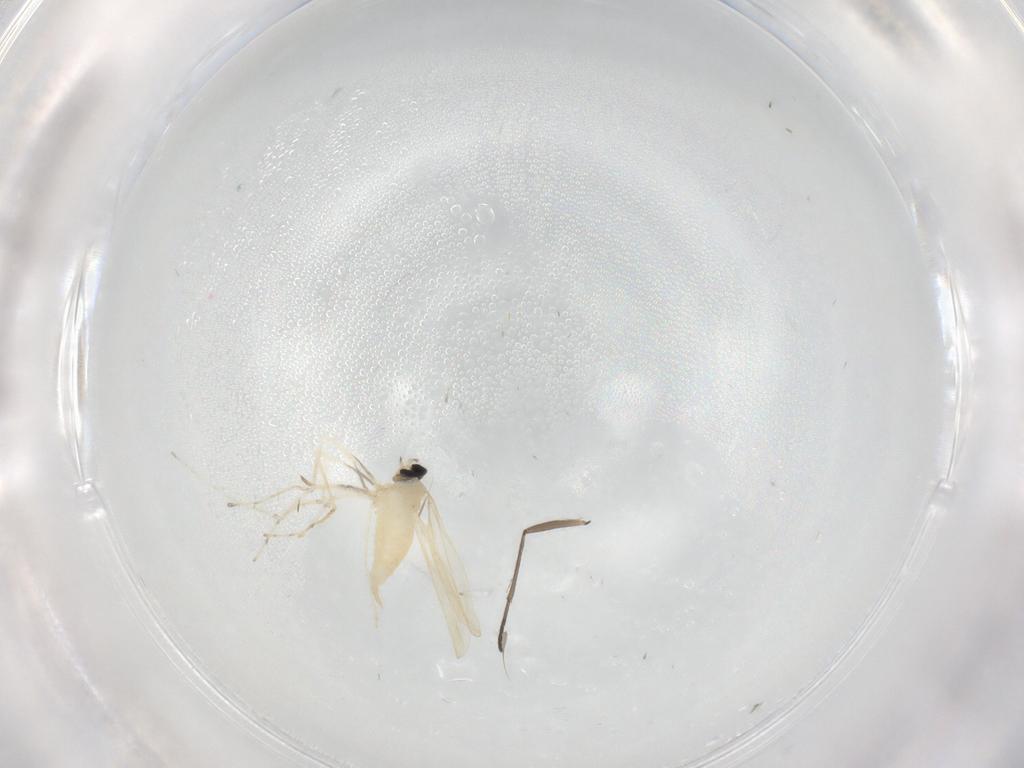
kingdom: Animalia
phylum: Arthropoda
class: Insecta
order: Diptera
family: Cecidomyiidae
